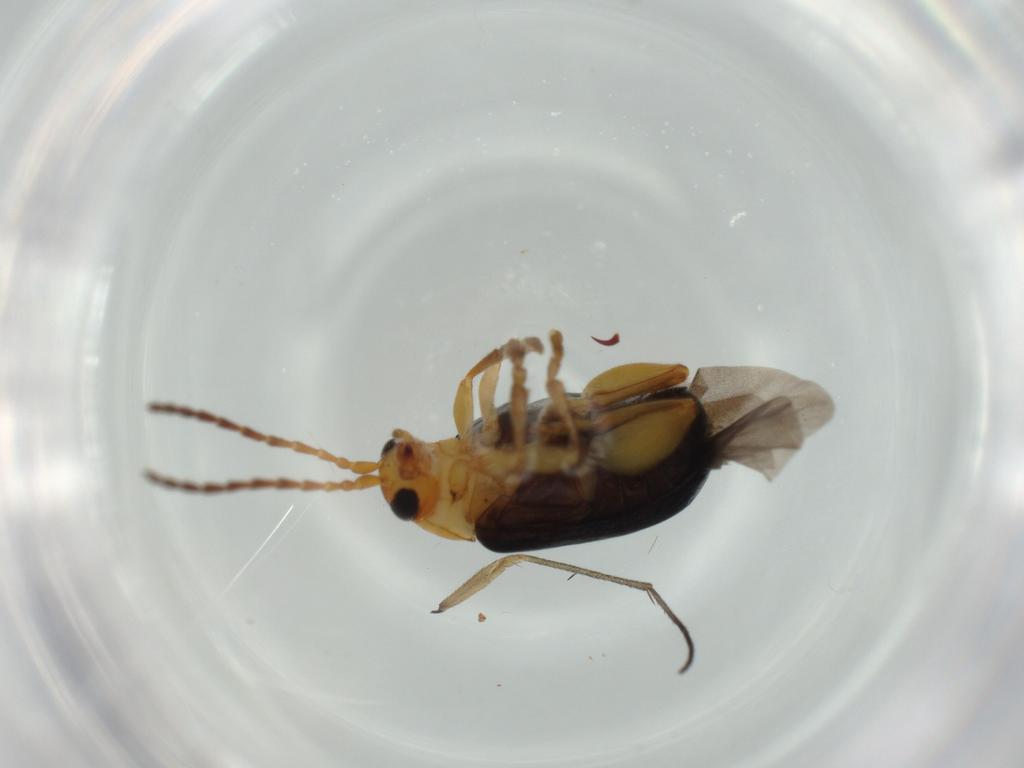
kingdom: Animalia
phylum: Arthropoda
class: Insecta
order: Coleoptera
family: Chrysomelidae
